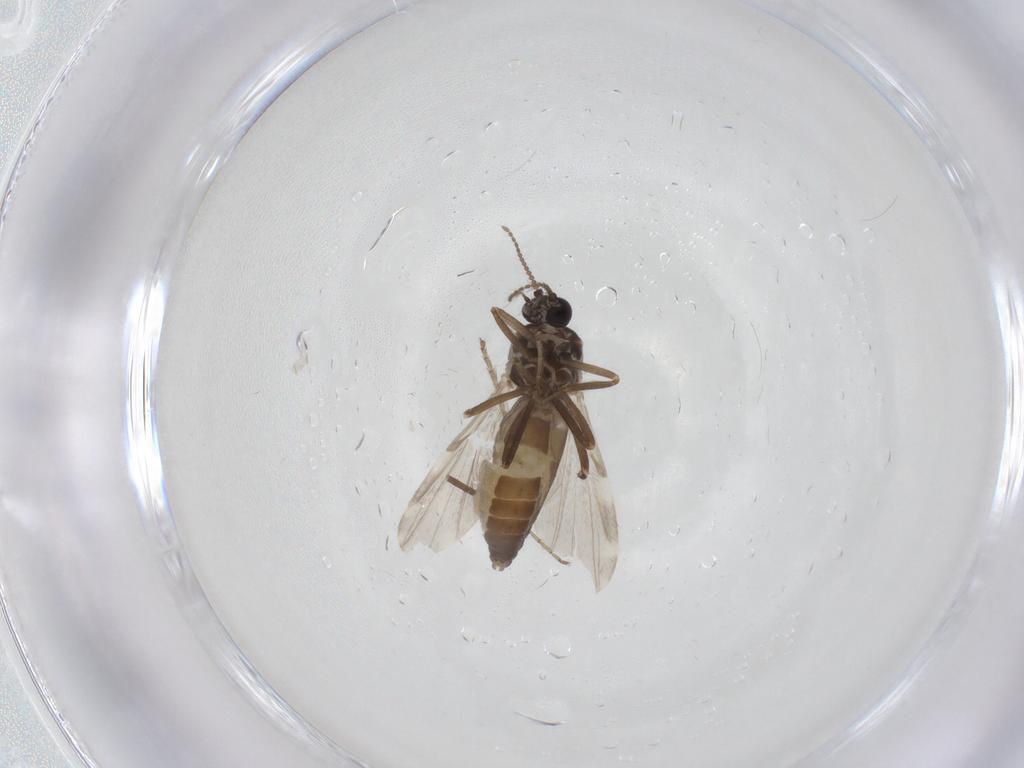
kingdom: Animalia
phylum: Arthropoda
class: Insecta
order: Diptera
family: Ceratopogonidae
